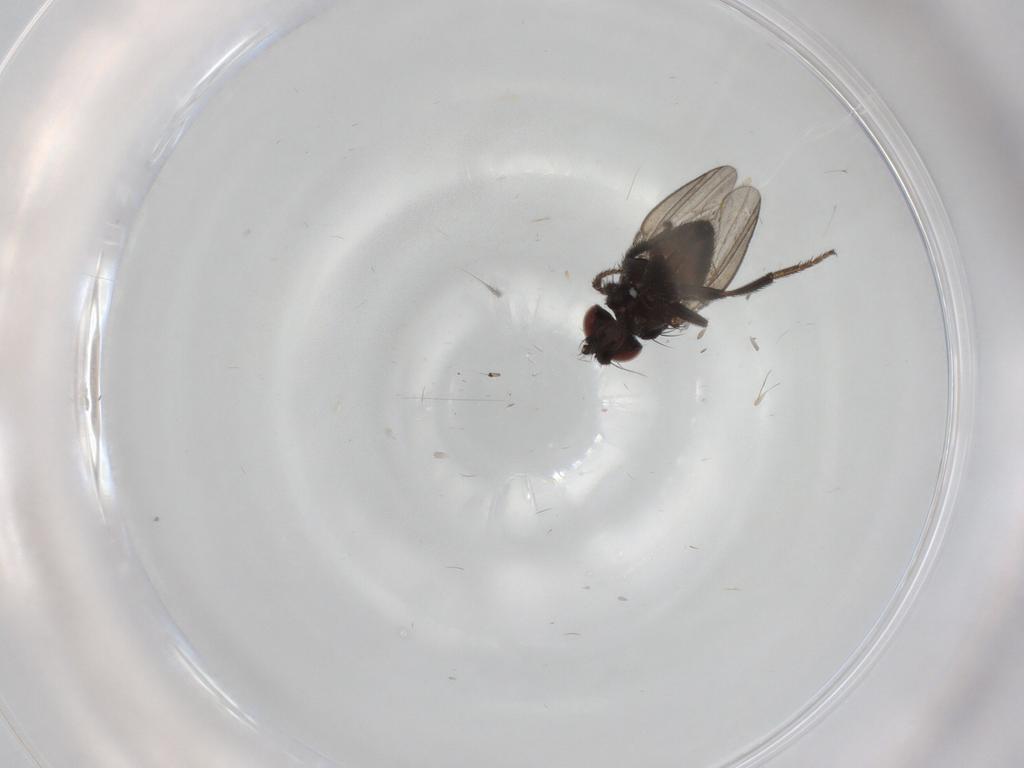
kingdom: Animalia
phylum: Arthropoda
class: Insecta
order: Diptera
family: Milichiidae
